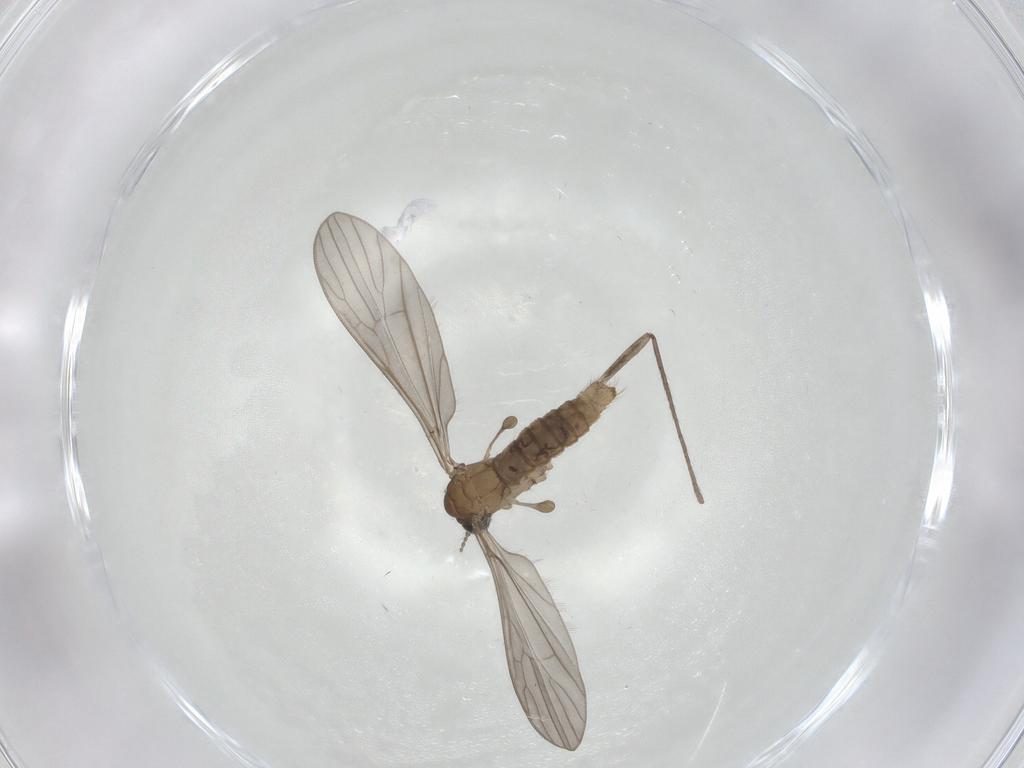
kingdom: Animalia
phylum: Arthropoda
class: Insecta
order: Diptera
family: Limoniidae
